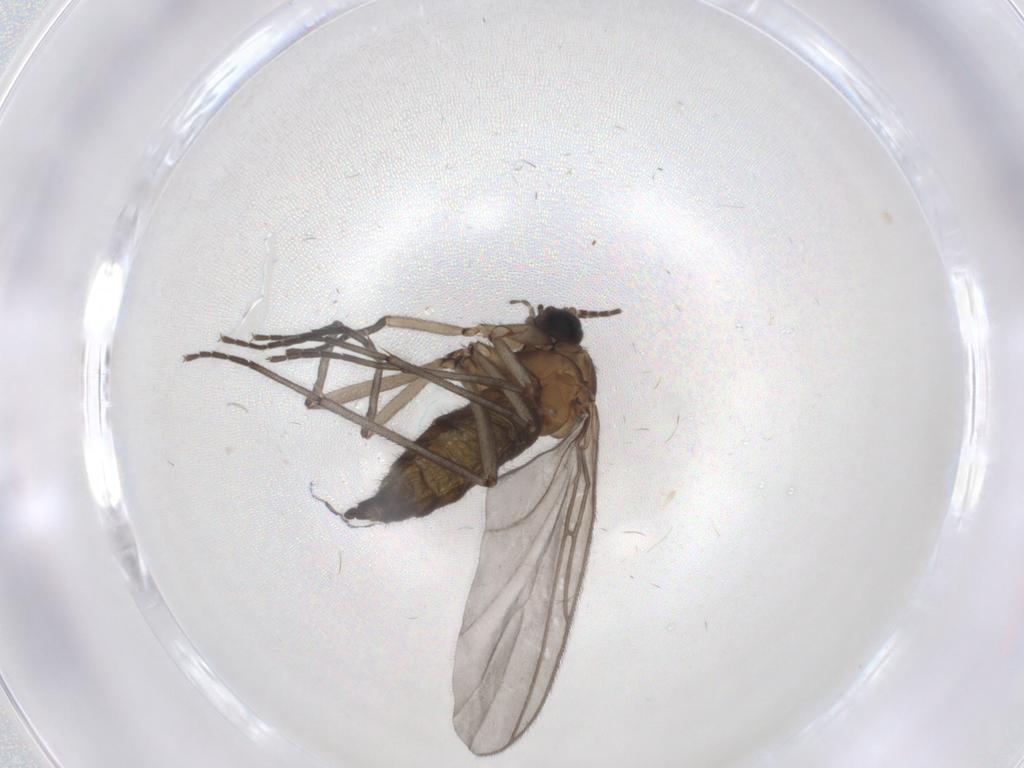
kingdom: Animalia
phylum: Arthropoda
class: Insecta
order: Diptera
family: Sciaridae
